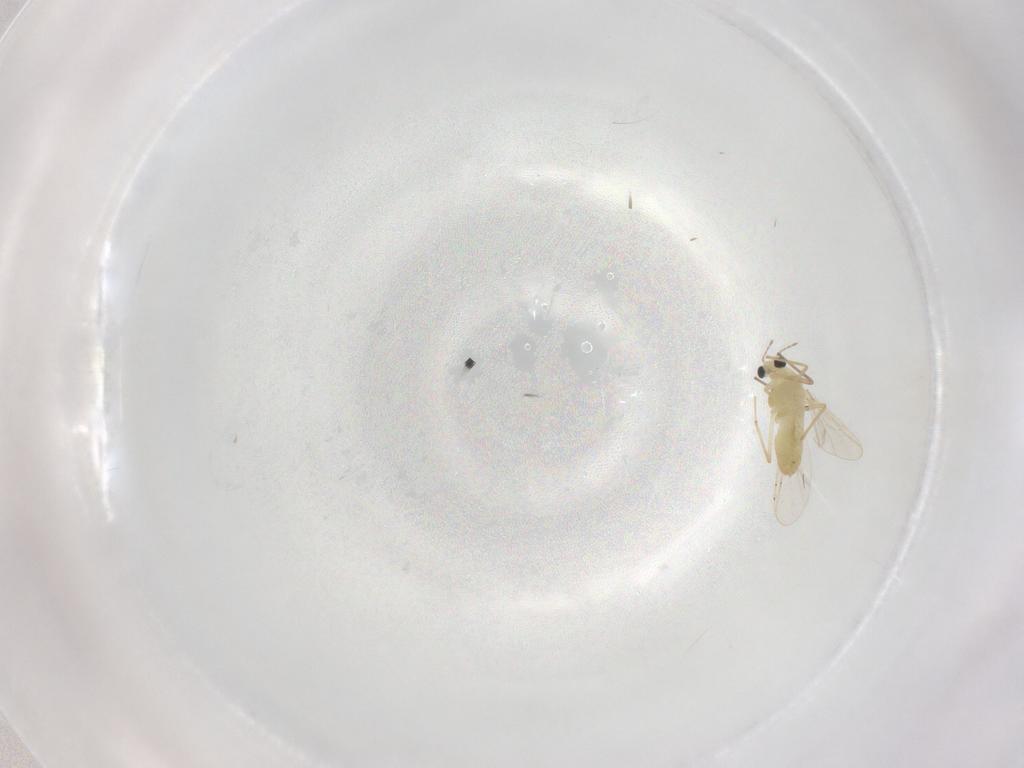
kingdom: Animalia
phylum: Arthropoda
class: Insecta
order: Diptera
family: Chironomidae
